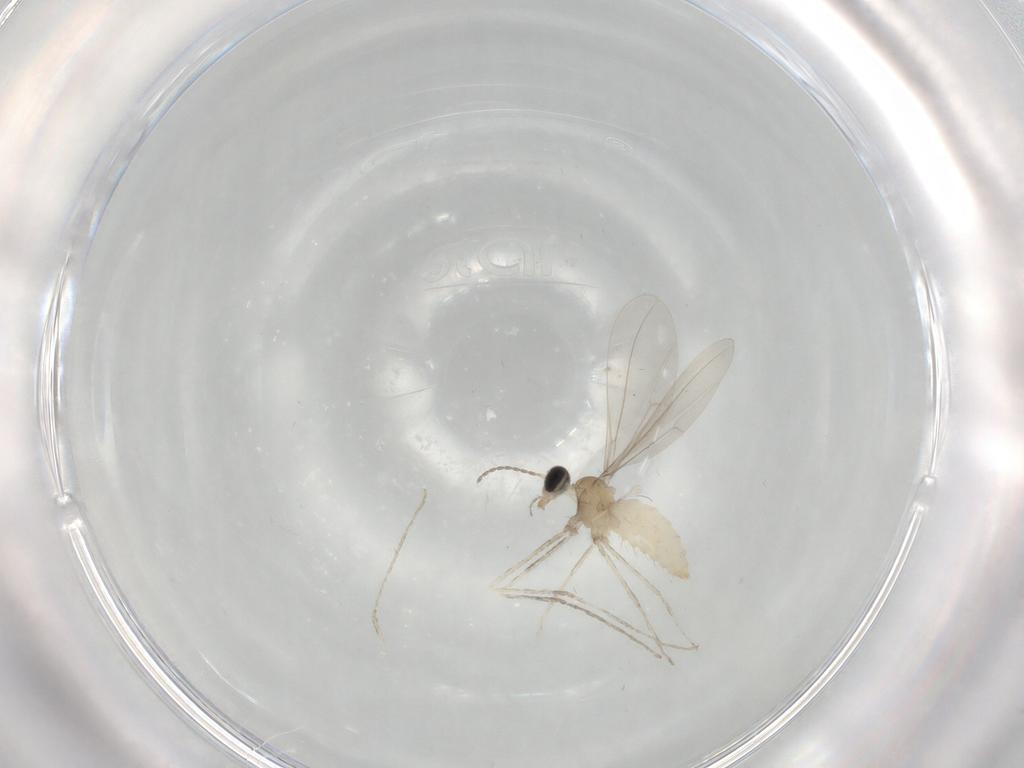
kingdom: Animalia
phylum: Arthropoda
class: Insecta
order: Diptera
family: Cecidomyiidae
